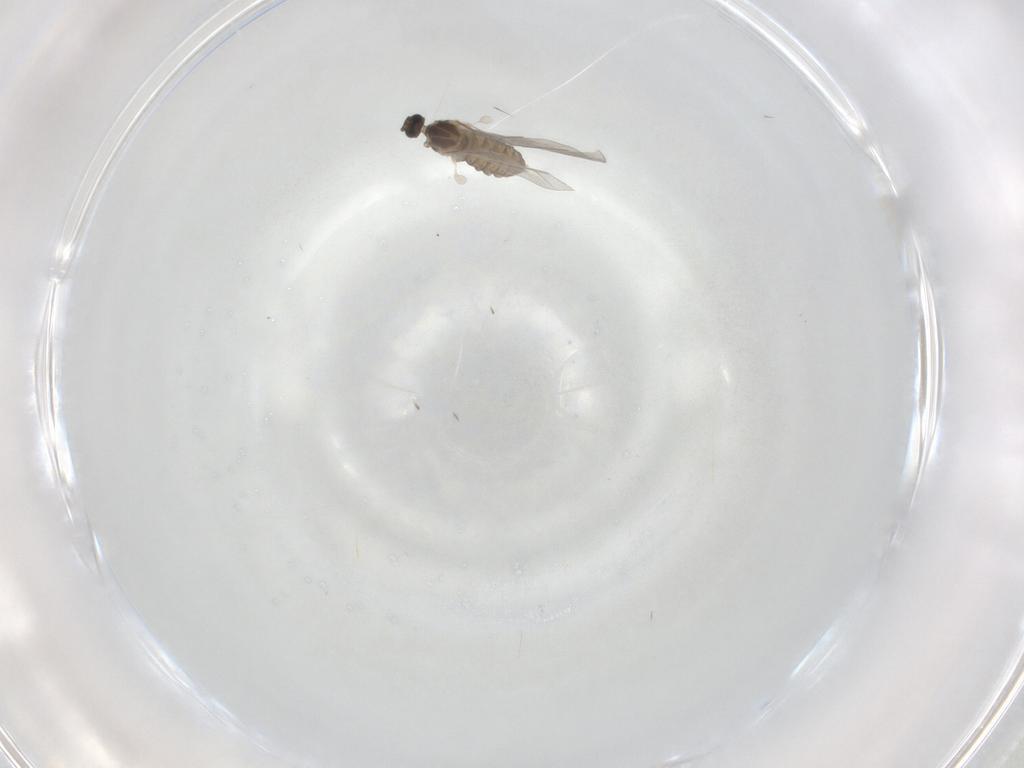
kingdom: Animalia
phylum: Arthropoda
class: Insecta
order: Diptera
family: Cecidomyiidae
